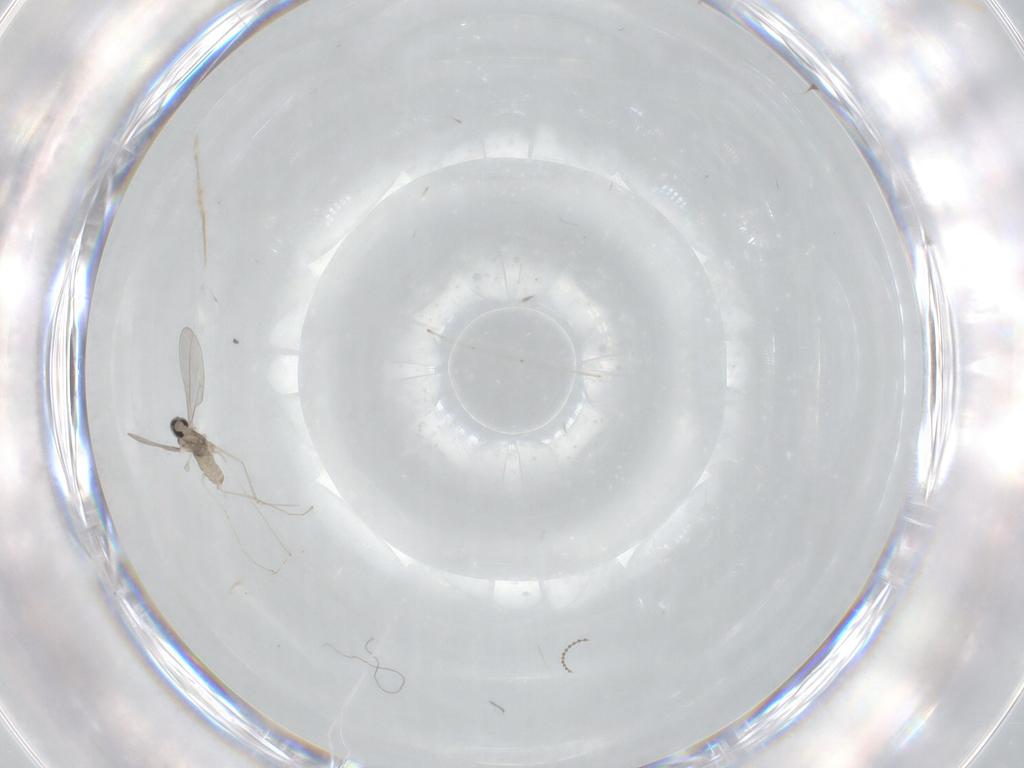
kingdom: Animalia
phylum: Arthropoda
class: Insecta
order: Diptera
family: Cecidomyiidae
